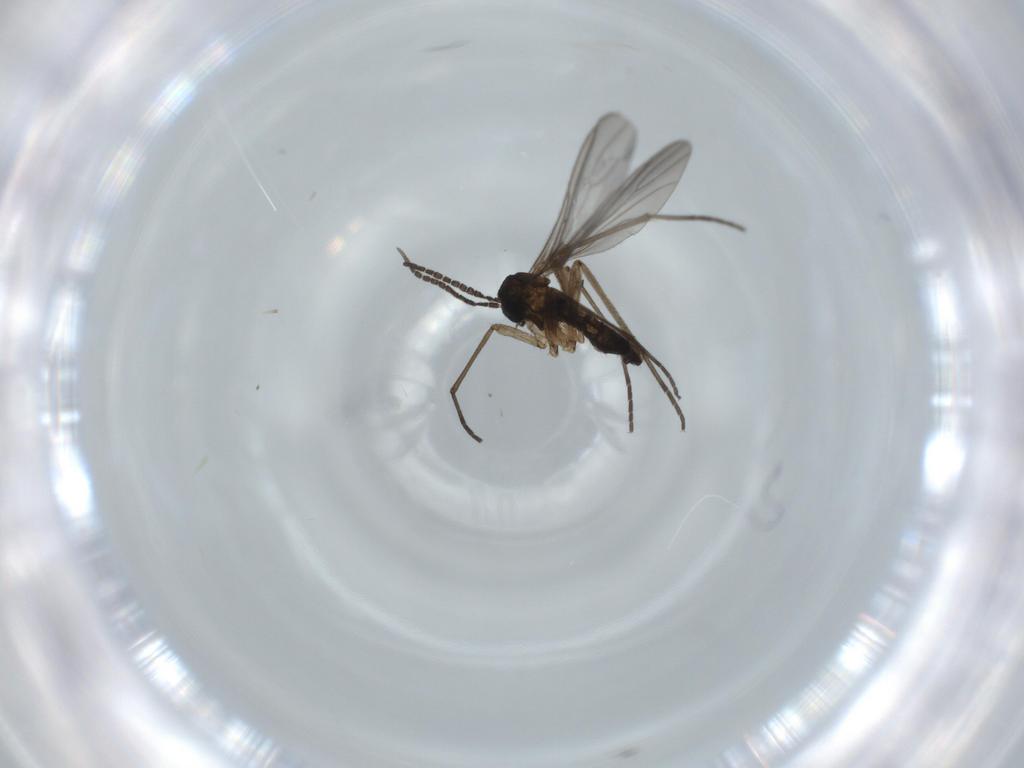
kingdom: Animalia
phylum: Arthropoda
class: Insecta
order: Diptera
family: Sciaridae
